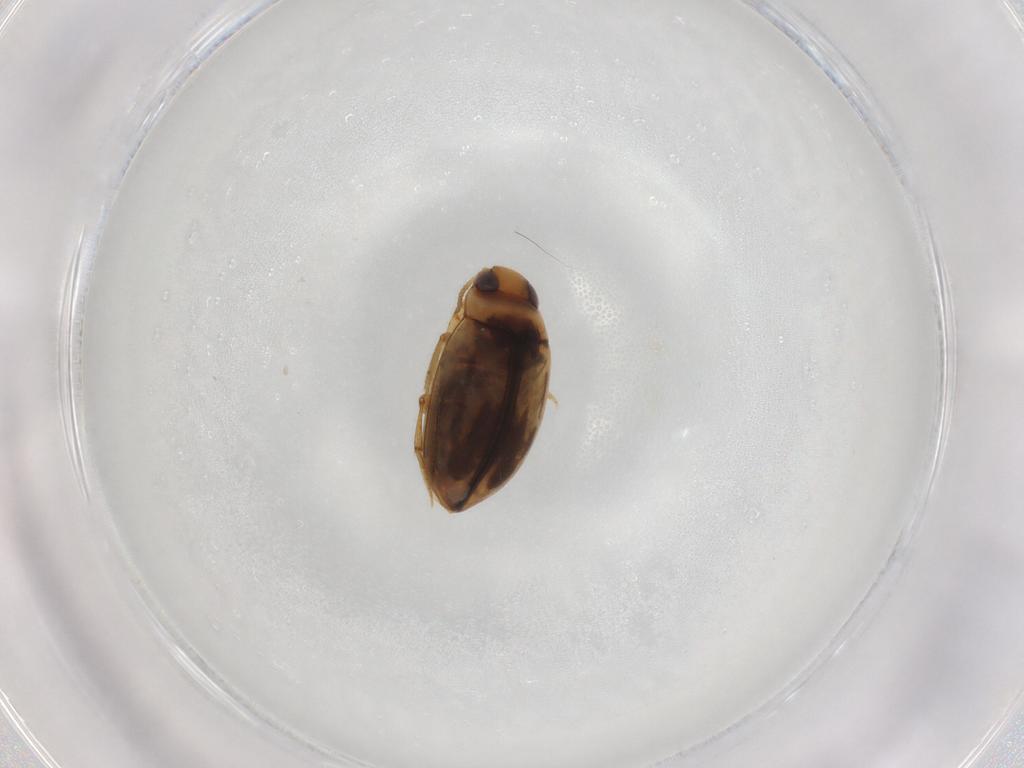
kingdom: Animalia
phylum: Arthropoda
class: Insecta
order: Coleoptera
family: Dytiscidae
